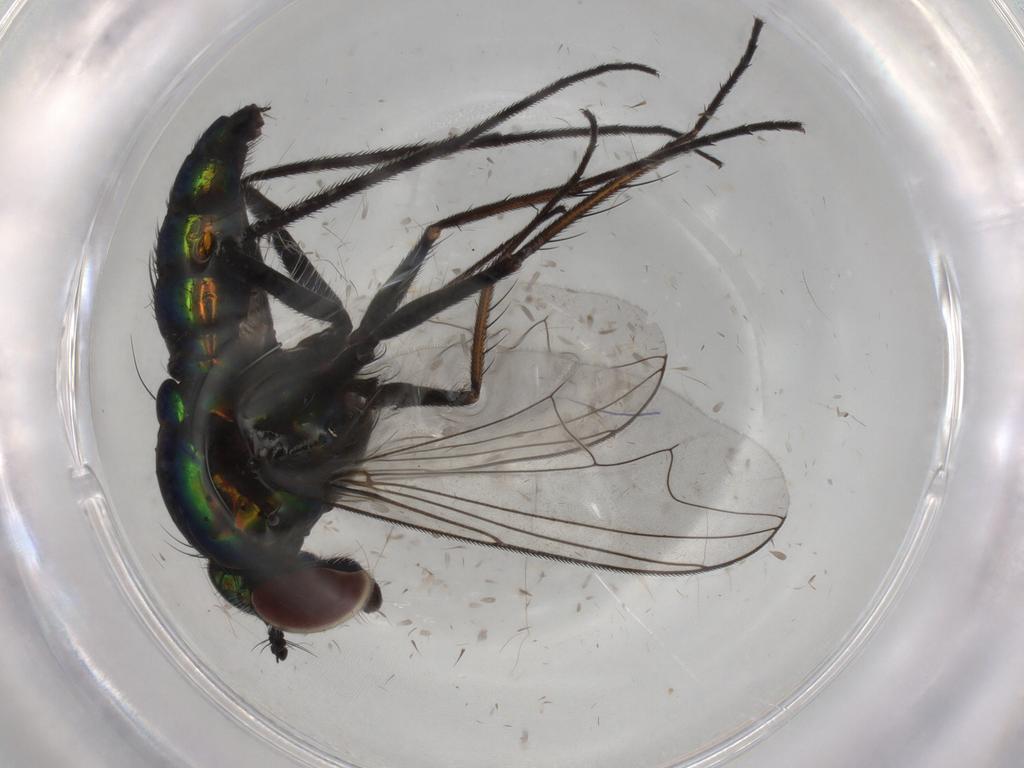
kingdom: Animalia
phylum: Arthropoda
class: Insecta
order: Diptera
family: Dolichopodidae
